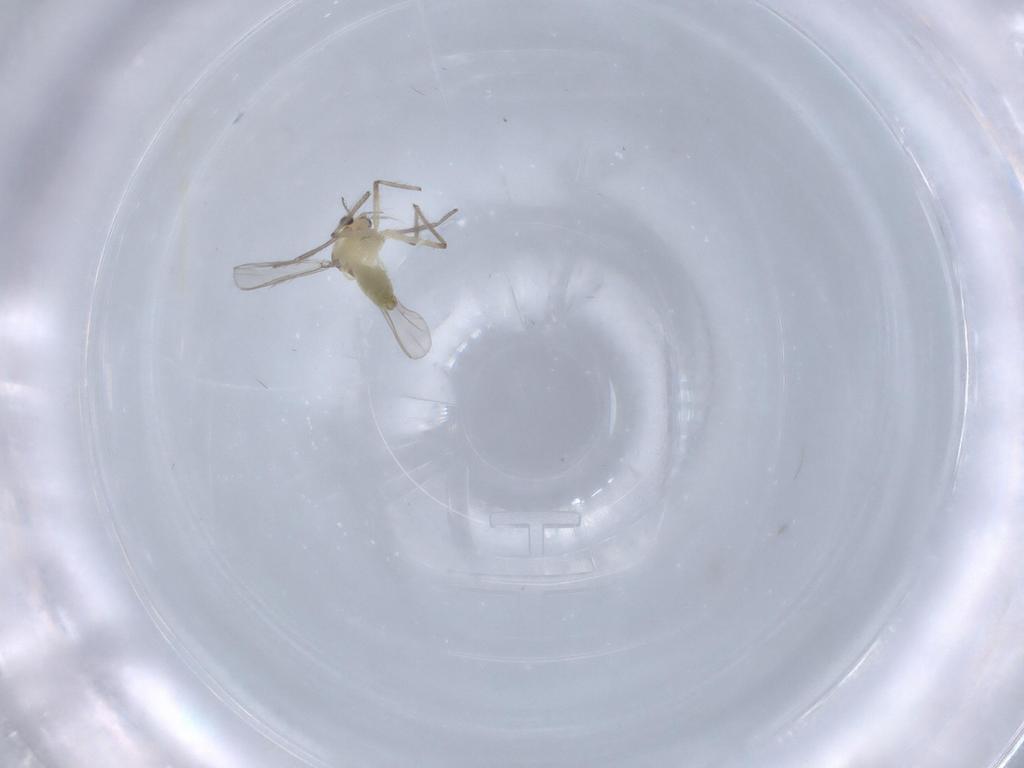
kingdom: Animalia
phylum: Arthropoda
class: Insecta
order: Diptera
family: Chironomidae
